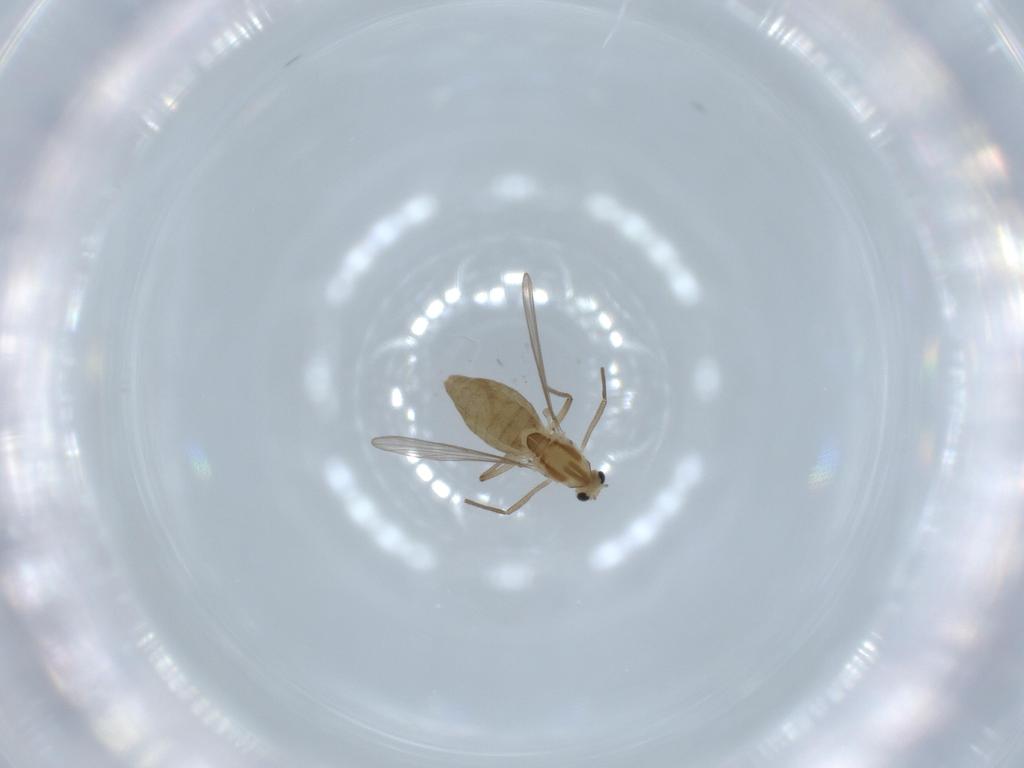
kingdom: Animalia
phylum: Arthropoda
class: Insecta
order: Diptera
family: Chironomidae
